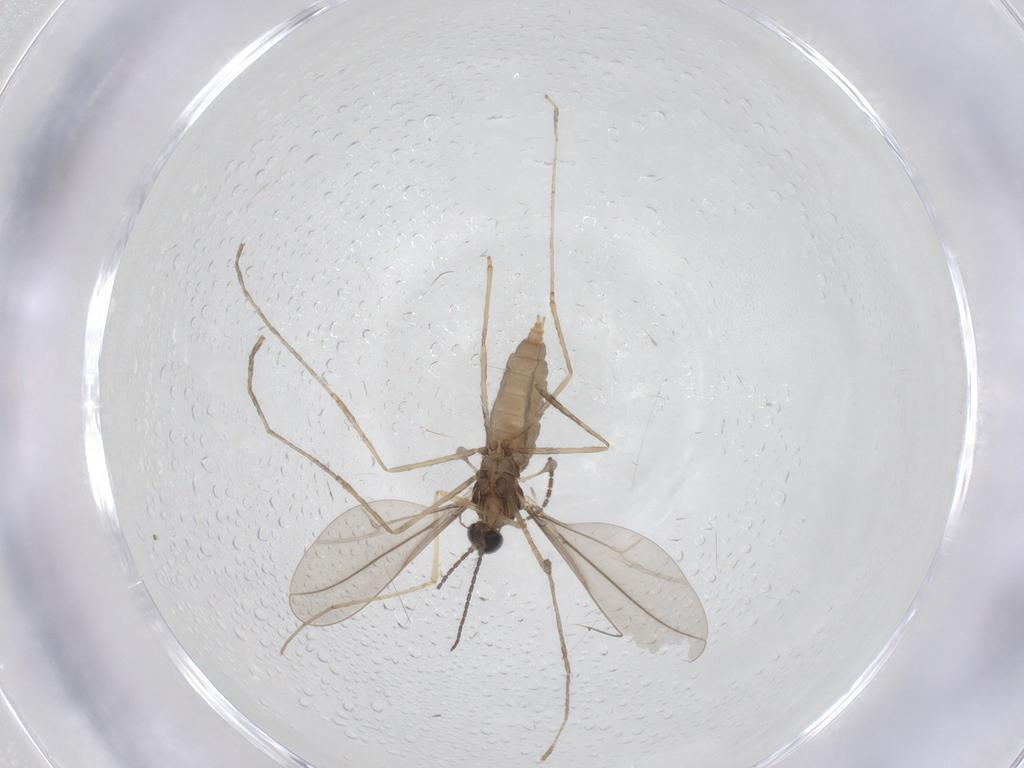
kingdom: Animalia
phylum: Arthropoda
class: Insecta
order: Diptera
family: Cecidomyiidae
